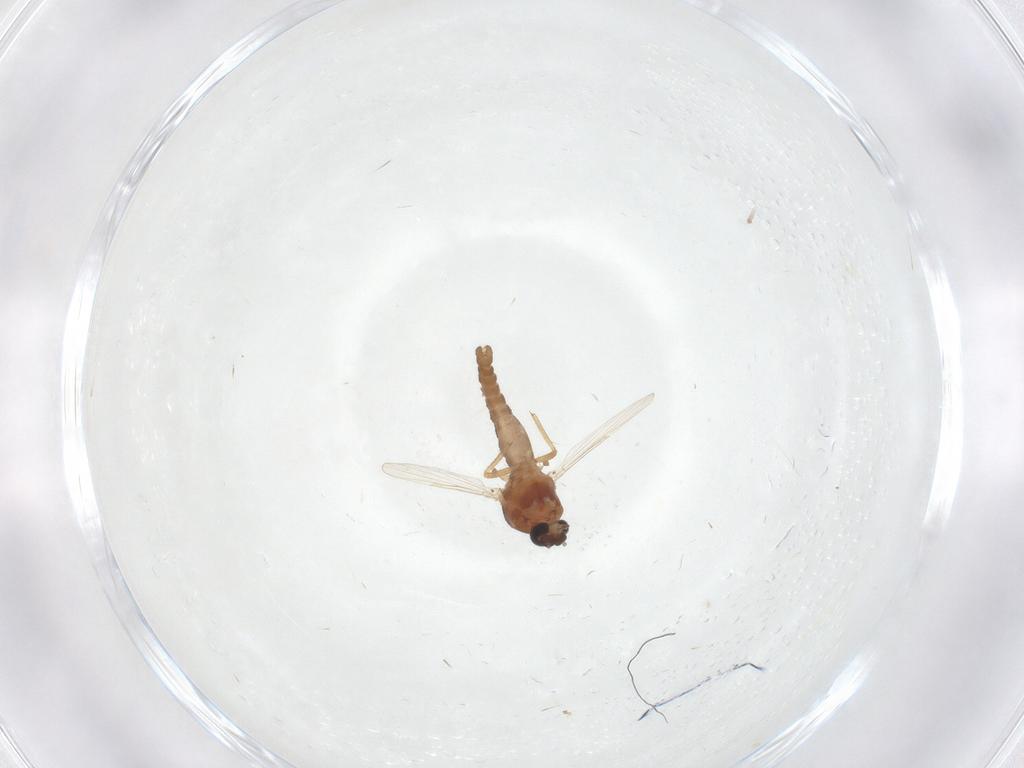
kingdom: Animalia
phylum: Arthropoda
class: Insecta
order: Diptera
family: Ceratopogonidae
